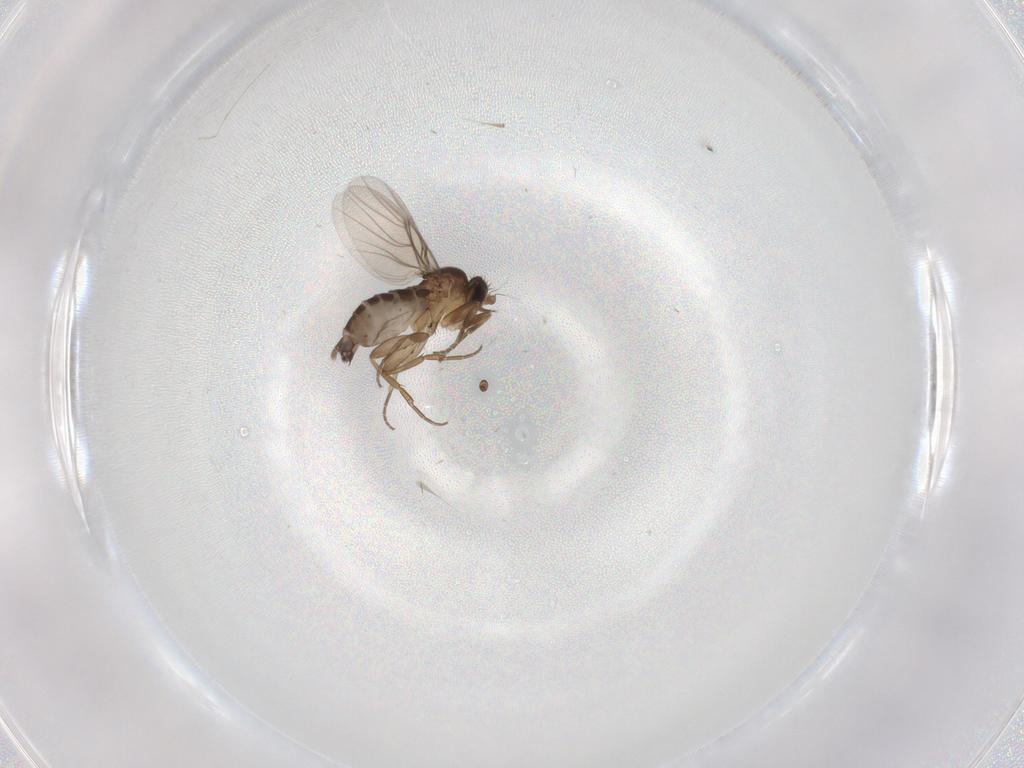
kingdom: Animalia
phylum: Arthropoda
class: Insecta
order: Diptera
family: Phoridae
